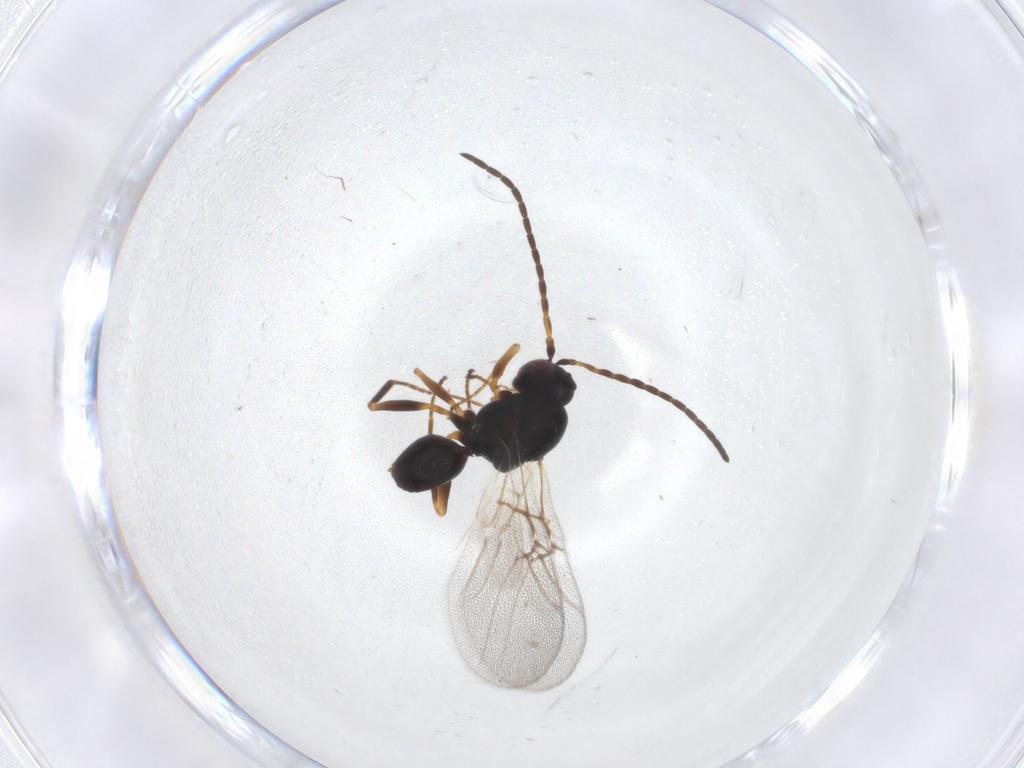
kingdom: Animalia
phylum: Arthropoda
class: Insecta
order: Hymenoptera
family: Cynipidae
